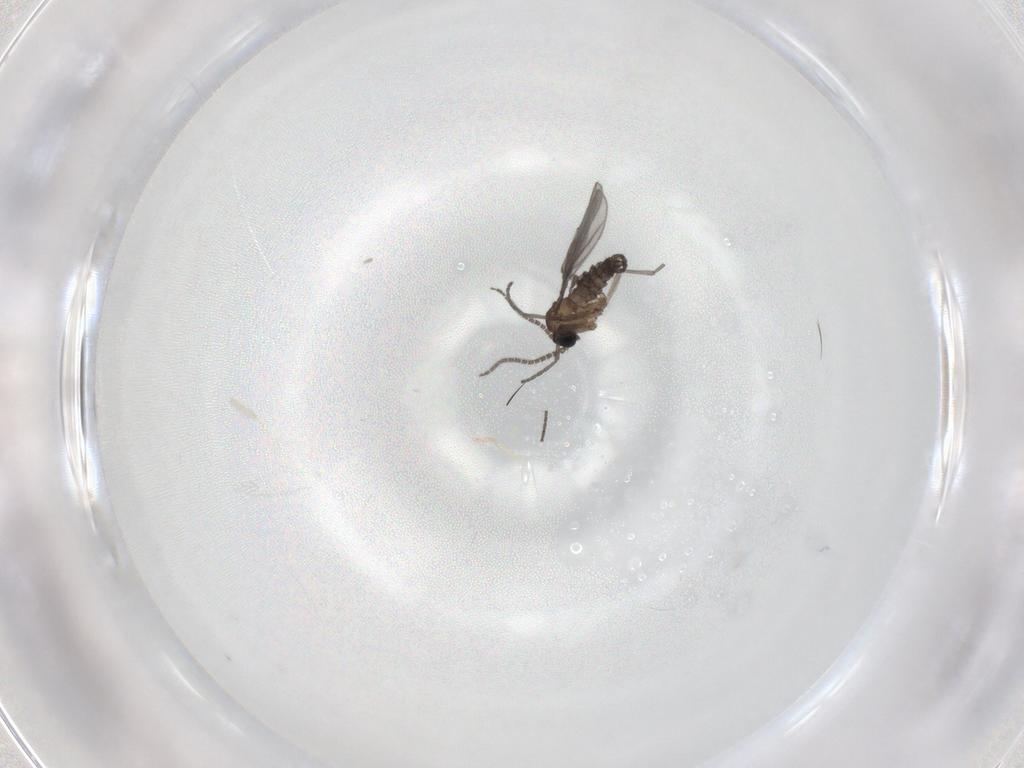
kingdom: Animalia
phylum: Arthropoda
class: Insecta
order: Diptera
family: Sciaridae
